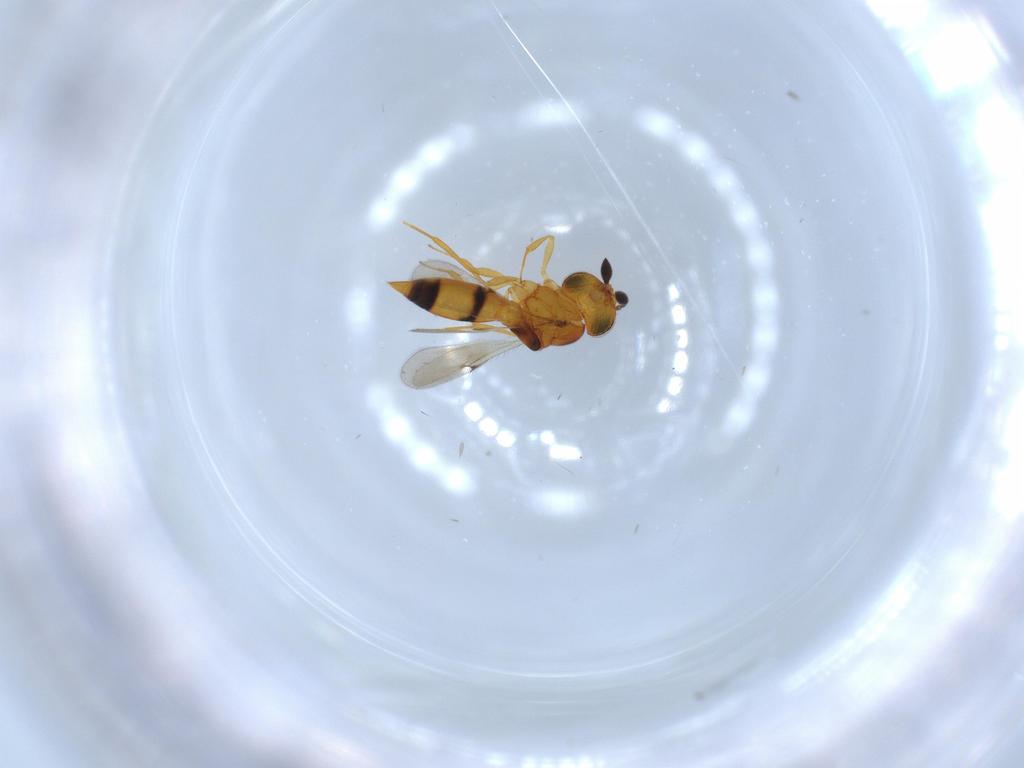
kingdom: Animalia
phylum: Arthropoda
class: Insecta
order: Hymenoptera
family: Scelionidae
